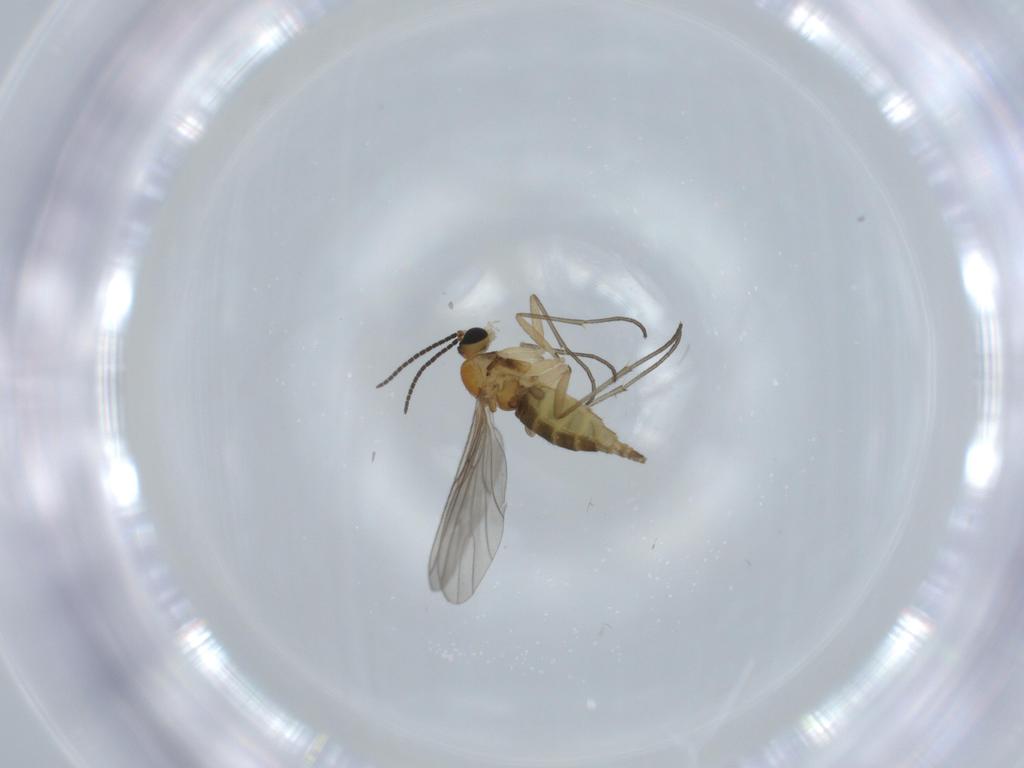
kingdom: Animalia
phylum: Arthropoda
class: Insecta
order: Diptera
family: Sciaridae
